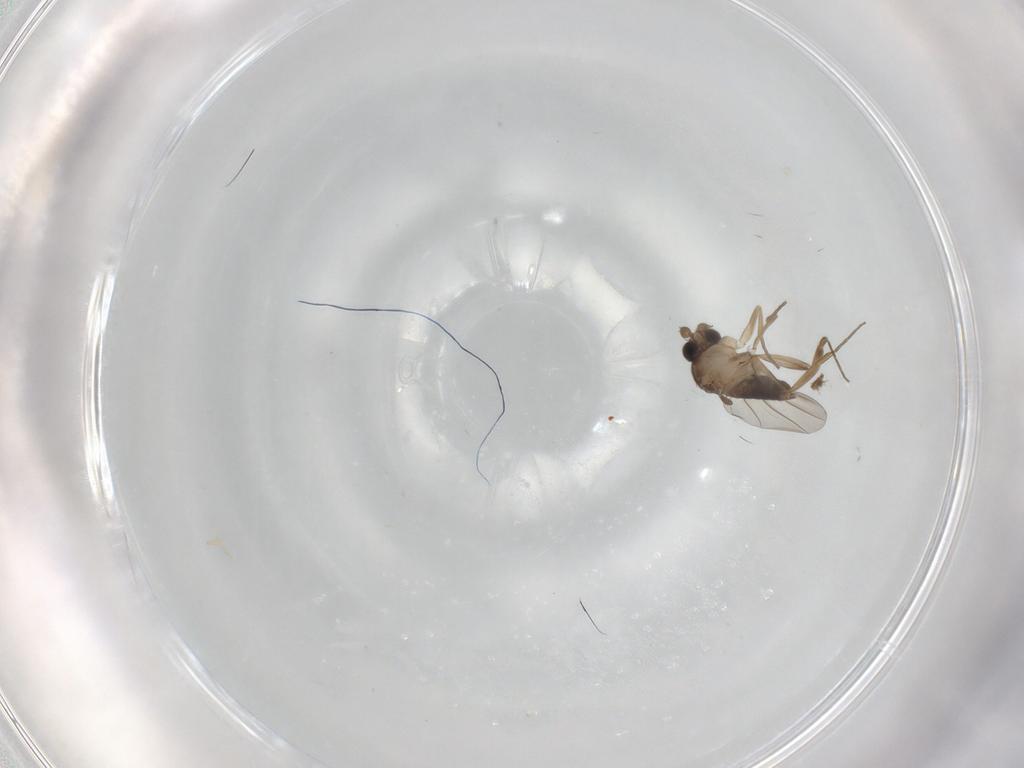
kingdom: Animalia
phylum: Arthropoda
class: Insecta
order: Diptera
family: Phoridae
